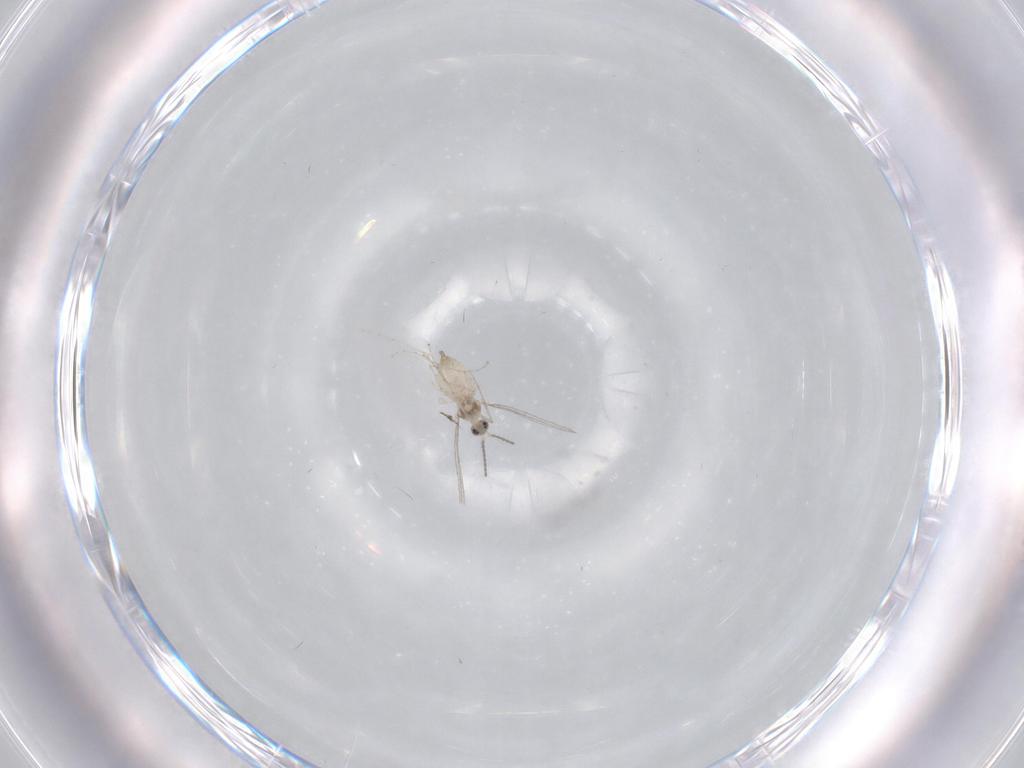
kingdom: Animalia
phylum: Arthropoda
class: Insecta
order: Diptera
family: Cecidomyiidae
